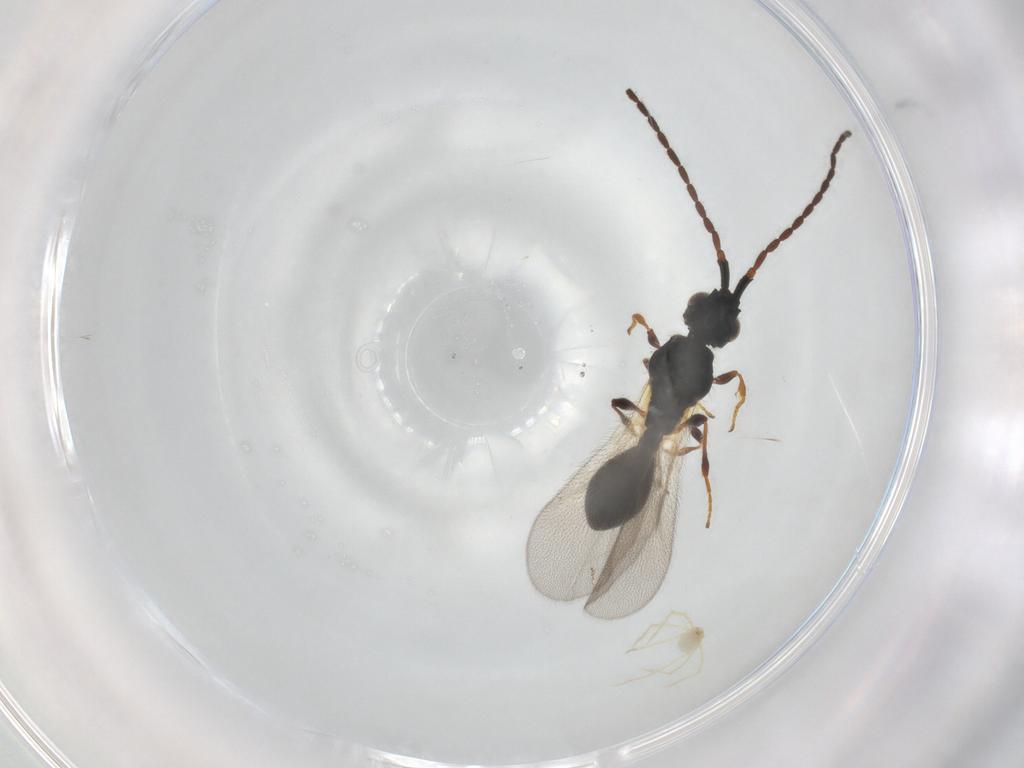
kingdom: Animalia
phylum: Arthropoda
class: Insecta
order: Hymenoptera
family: Diapriidae
